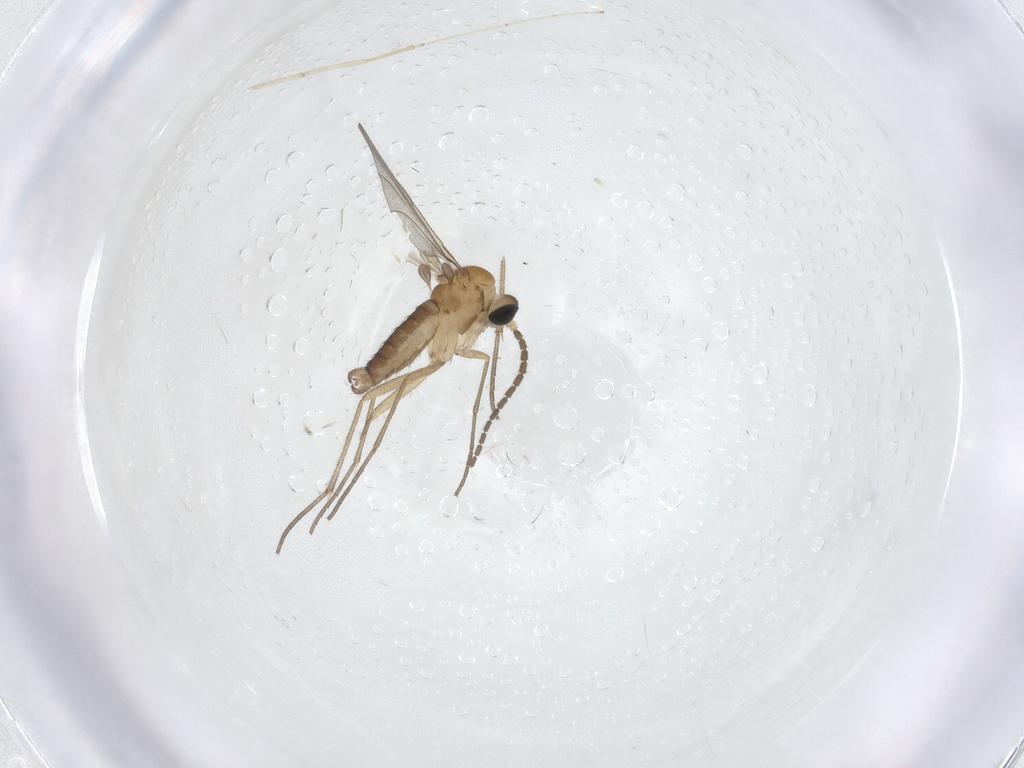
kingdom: Animalia
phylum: Arthropoda
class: Insecta
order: Diptera
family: Sciaridae
